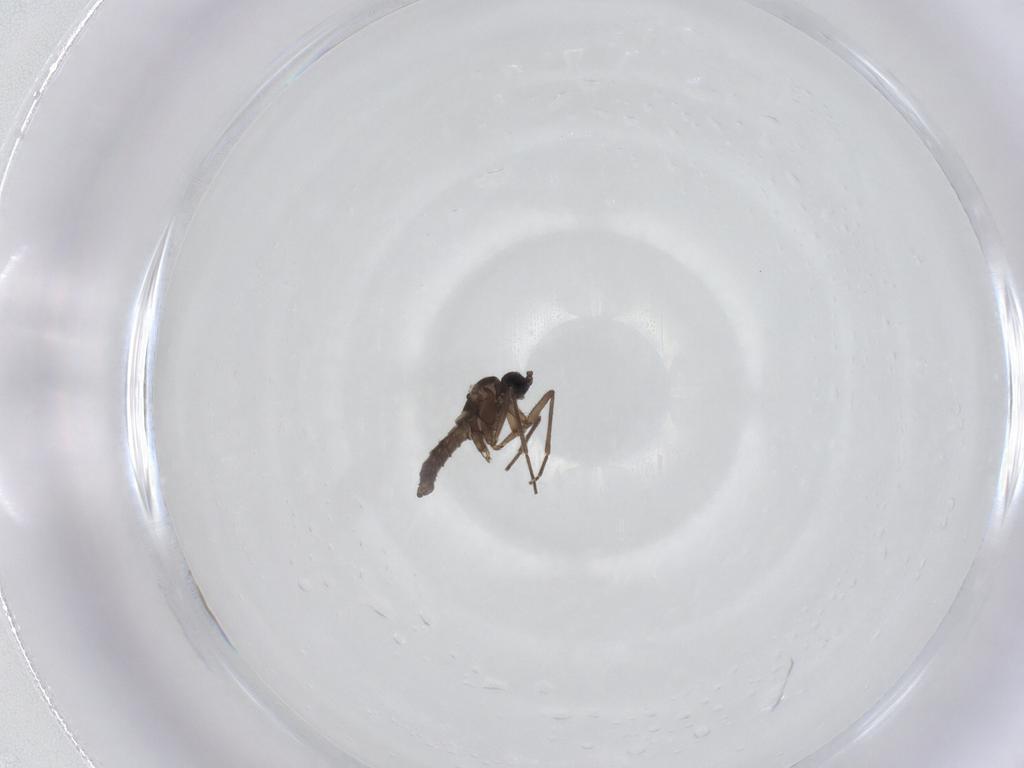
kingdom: Animalia
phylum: Arthropoda
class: Insecta
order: Diptera
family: Sciaridae
